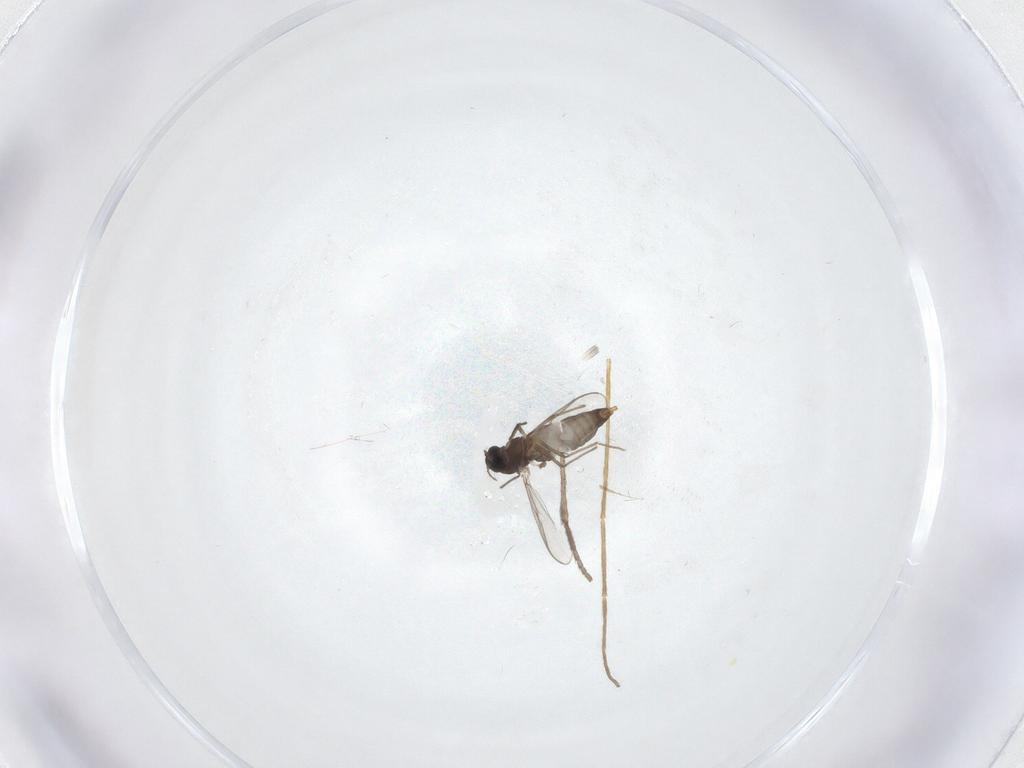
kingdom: Animalia
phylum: Arthropoda
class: Insecta
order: Diptera
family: Psychodidae
